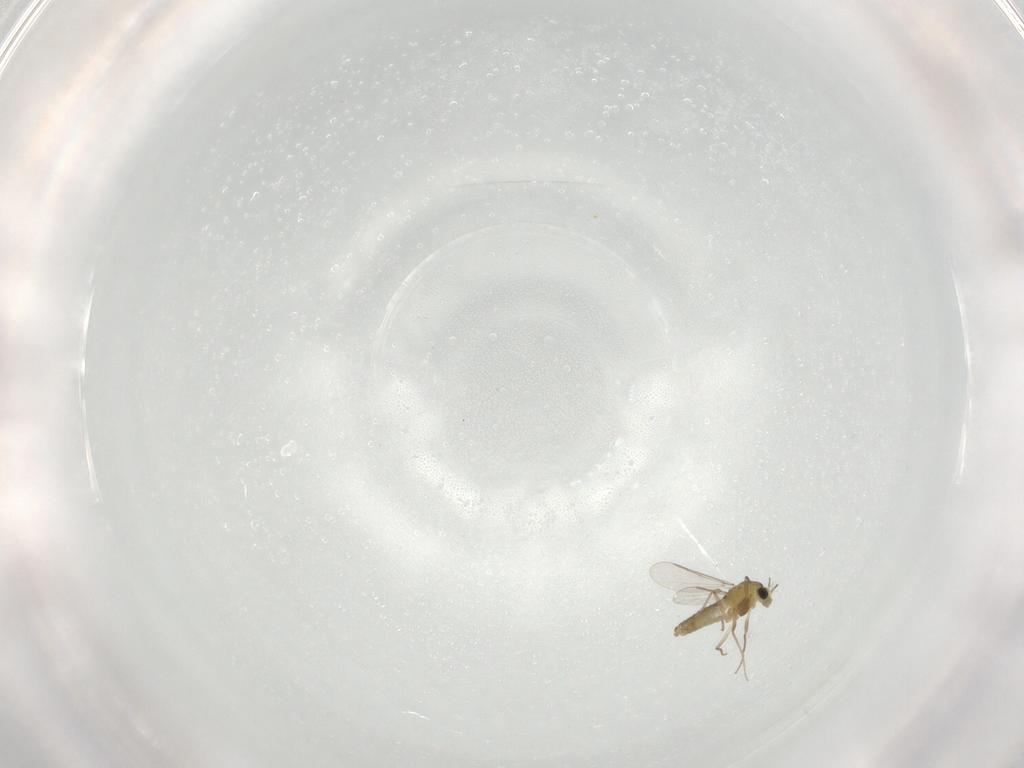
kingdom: Animalia
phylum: Arthropoda
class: Insecta
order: Diptera
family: Chironomidae
